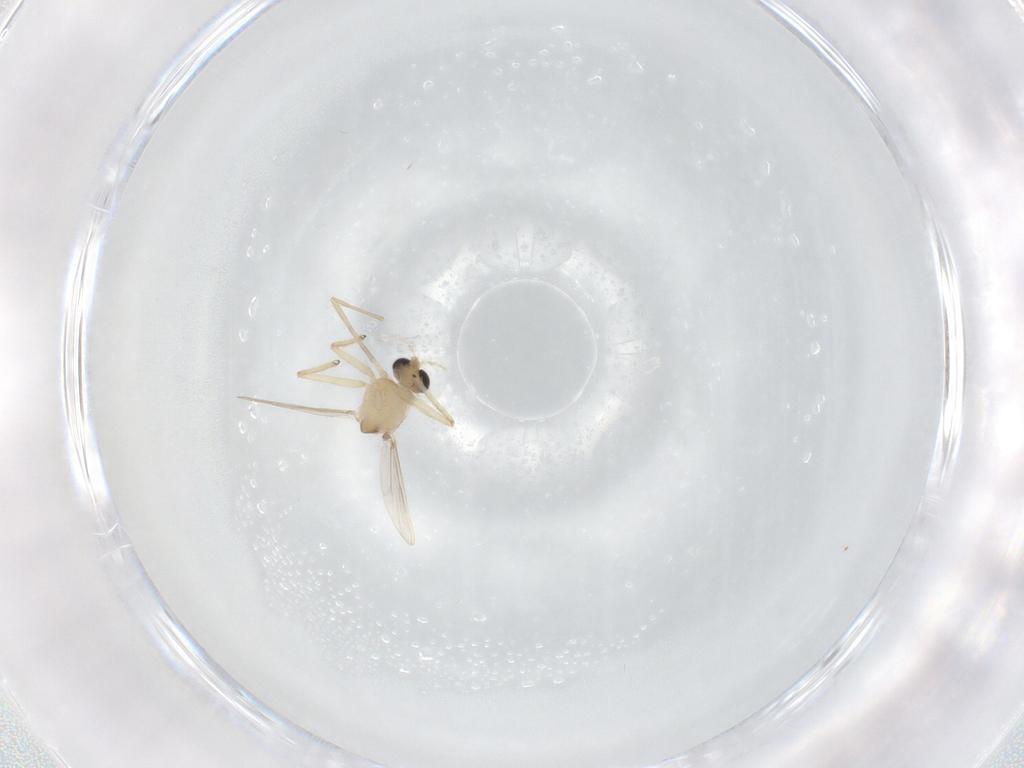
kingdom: Animalia
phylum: Arthropoda
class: Insecta
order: Diptera
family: Chironomidae
